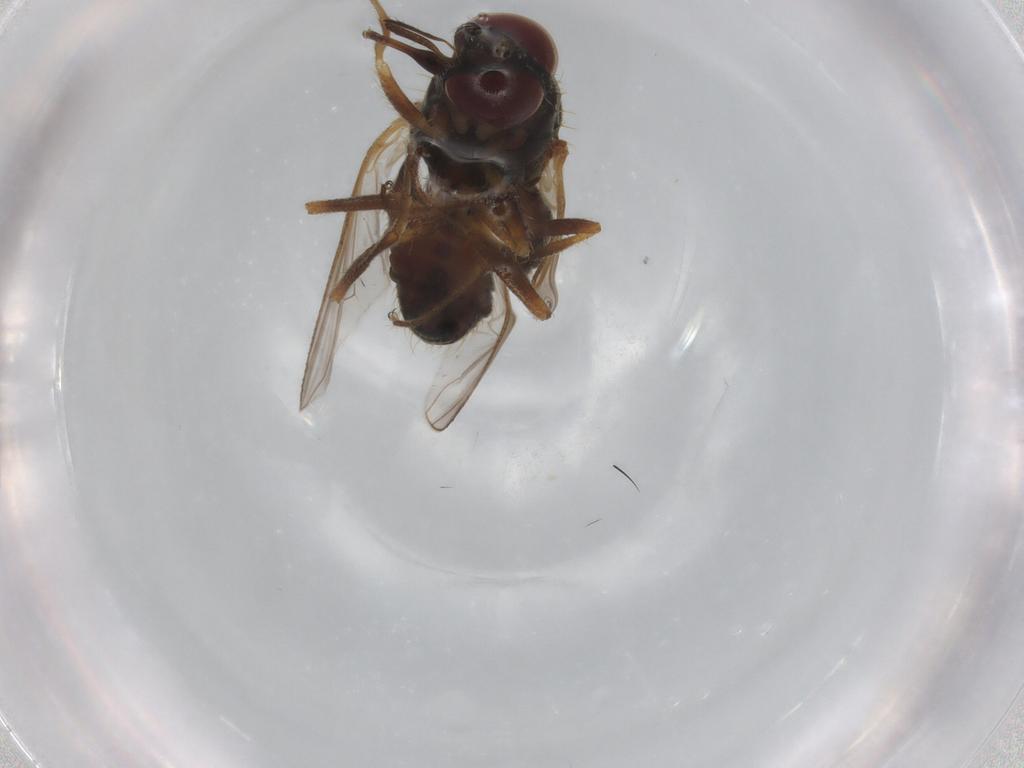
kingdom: Animalia
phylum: Arthropoda
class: Insecta
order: Diptera
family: Muscidae
